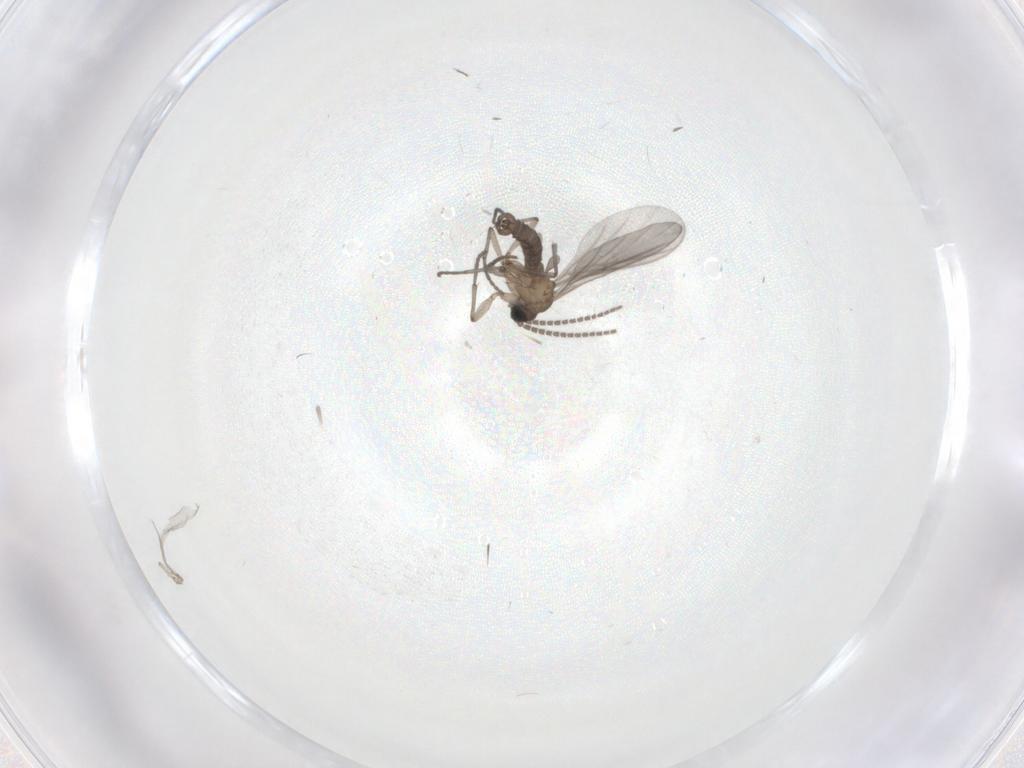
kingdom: Animalia
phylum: Arthropoda
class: Insecta
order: Diptera
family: Sciaridae
